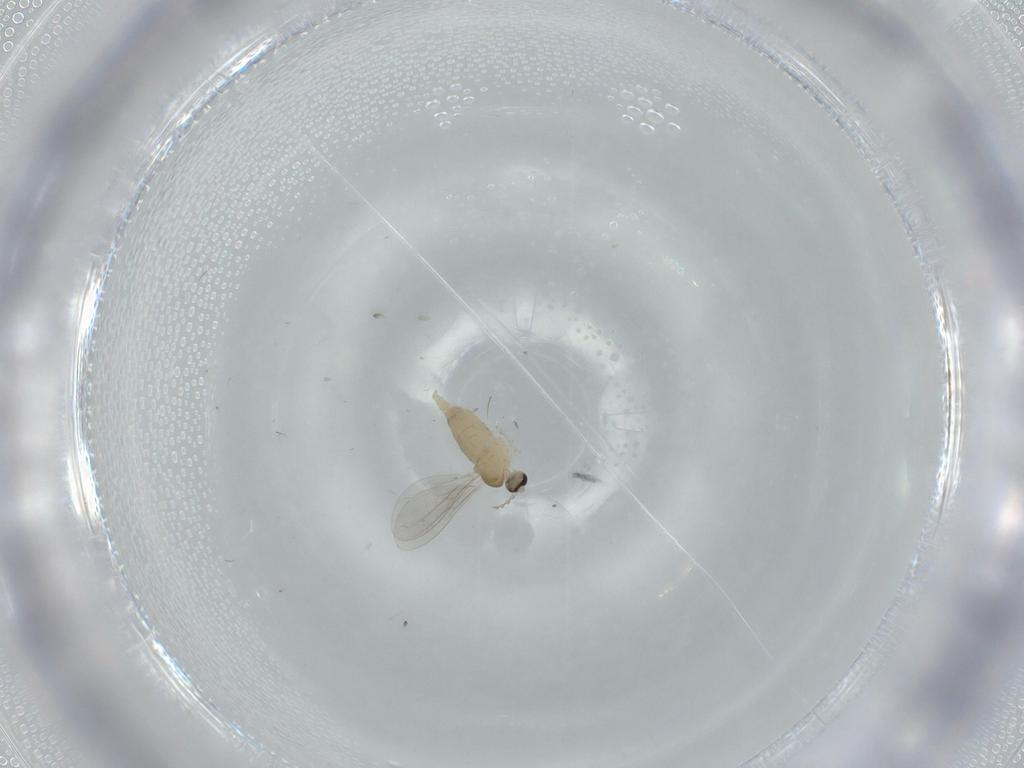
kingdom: Animalia
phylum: Arthropoda
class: Insecta
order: Diptera
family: Cecidomyiidae
